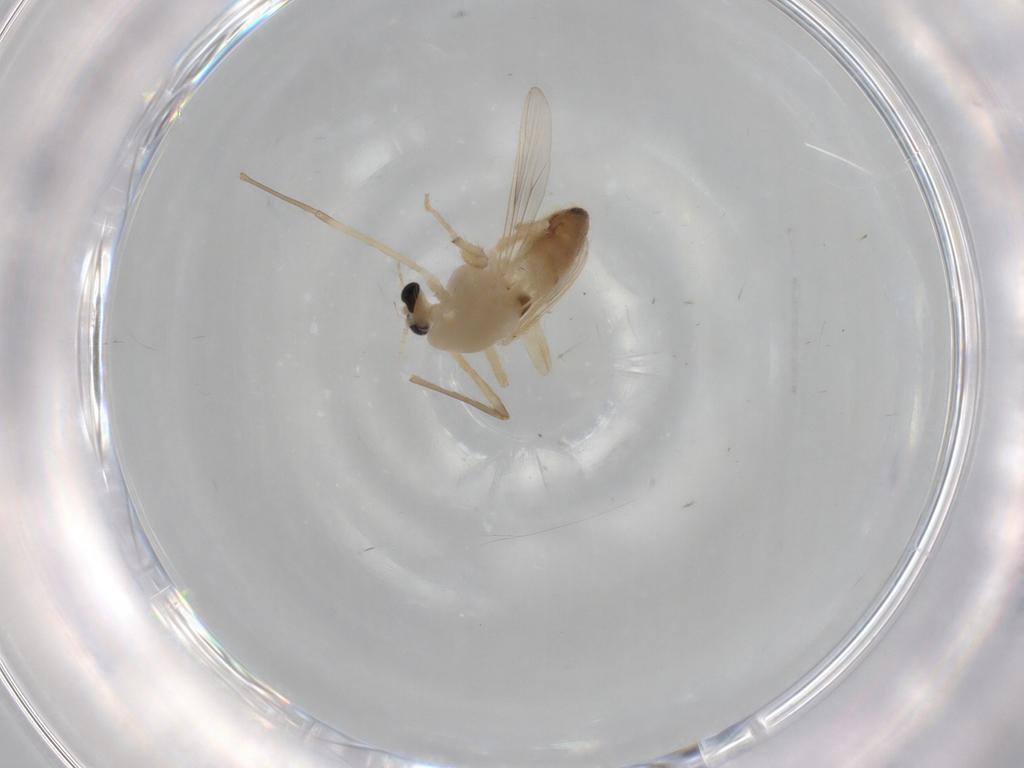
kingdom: Animalia
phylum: Arthropoda
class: Insecta
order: Diptera
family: Chironomidae
